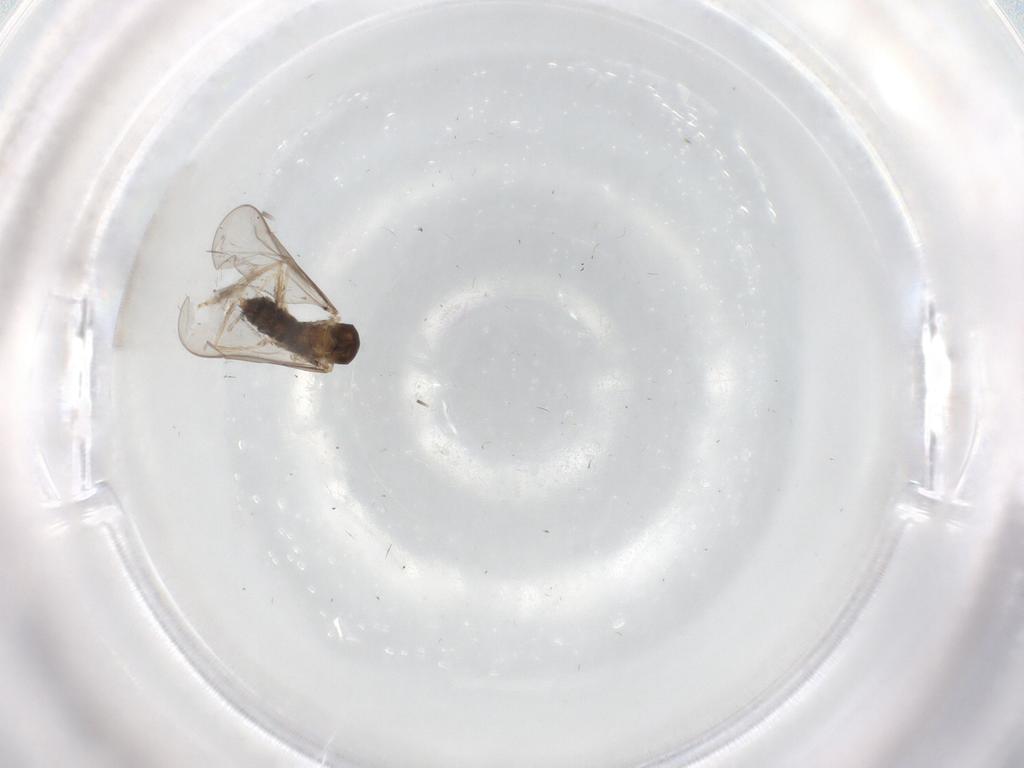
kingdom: Animalia
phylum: Arthropoda
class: Insecta
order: Diptera
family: Cecidomyiidae
